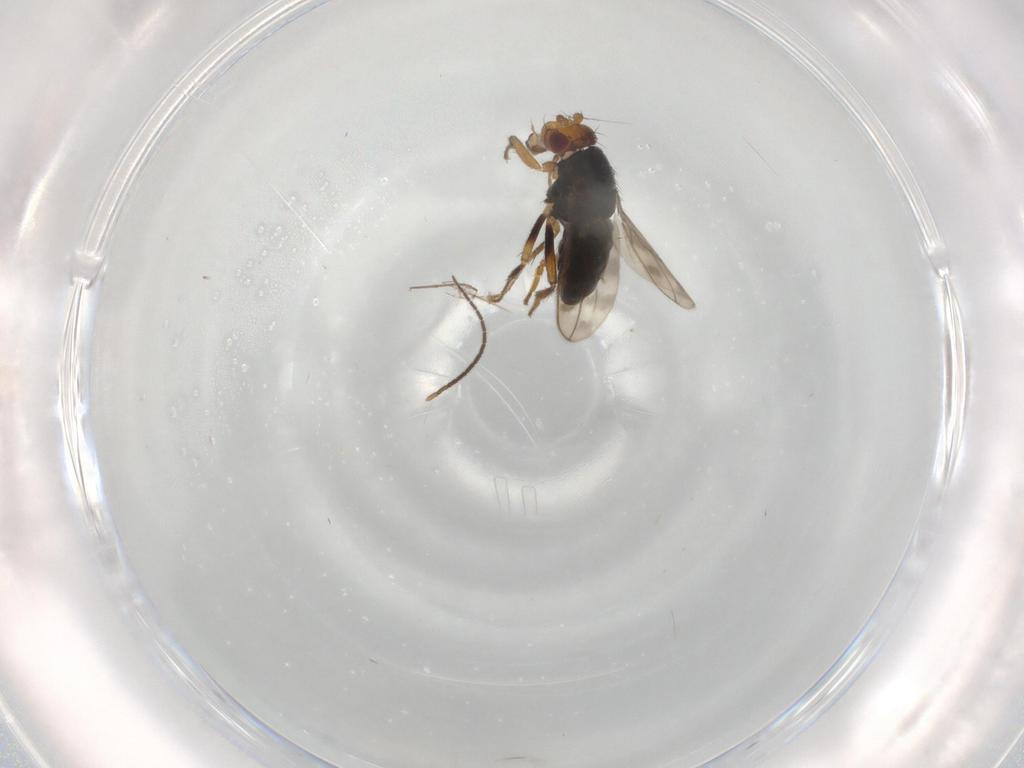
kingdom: Animalia
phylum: Arthropoda
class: Insecta
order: Diptera
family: Sphaeroceridae
